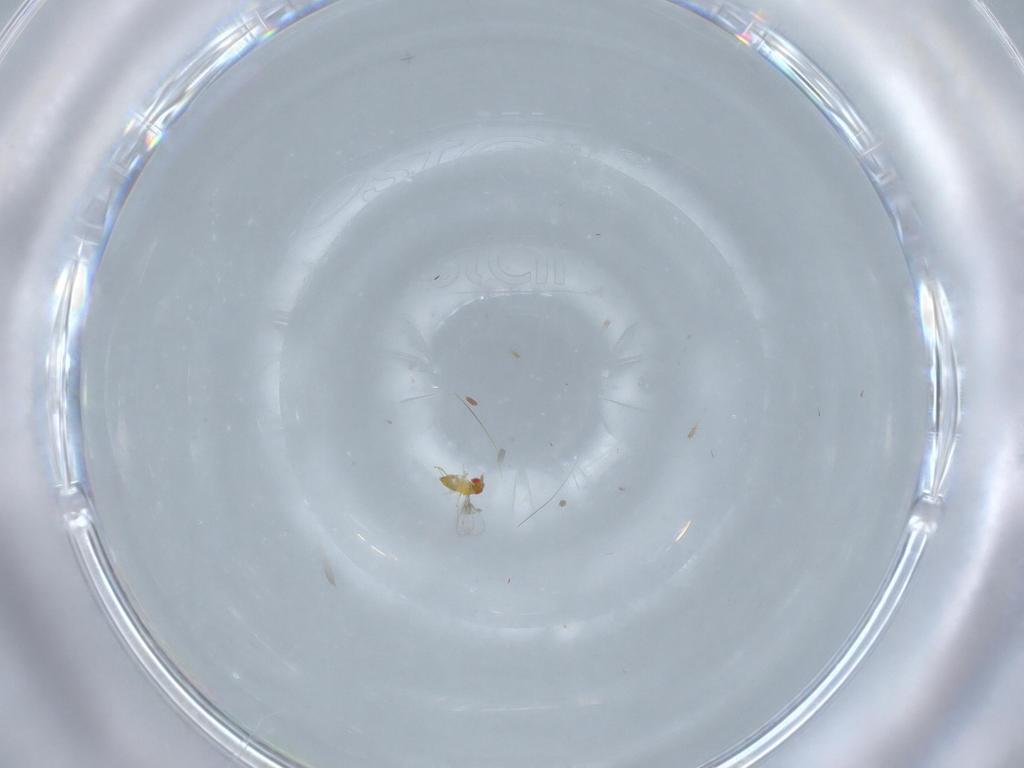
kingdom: Animalia
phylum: Arthropoda
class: Insecta
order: Hymenoptera
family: Trichogrammatidae
